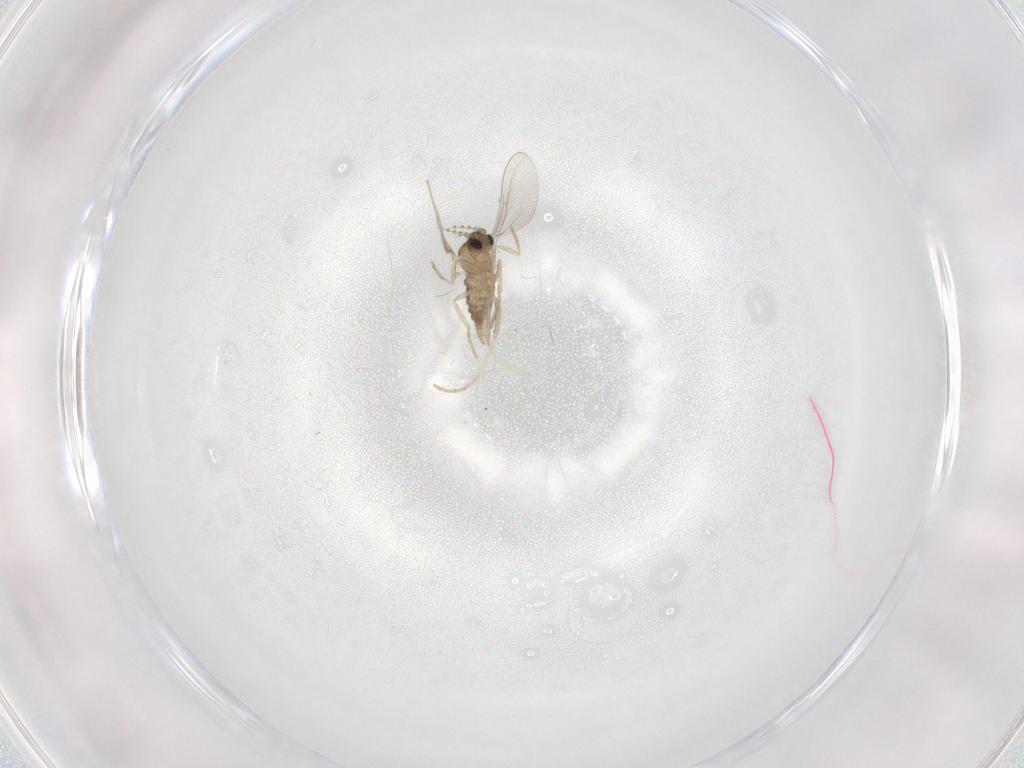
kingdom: Animalia
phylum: Arthropoda
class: Insecta
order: Diptera
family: Cecidomyiidae
